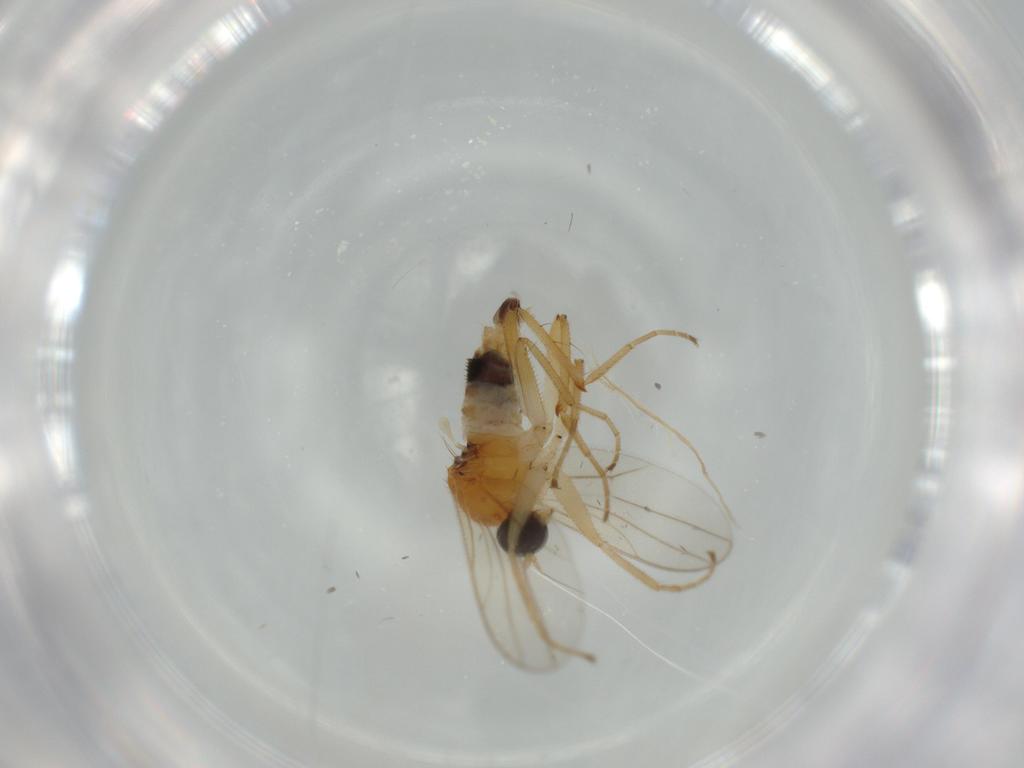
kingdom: Animalia
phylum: Arthropoda
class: Insecta
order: Diptera
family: Hybotidae
